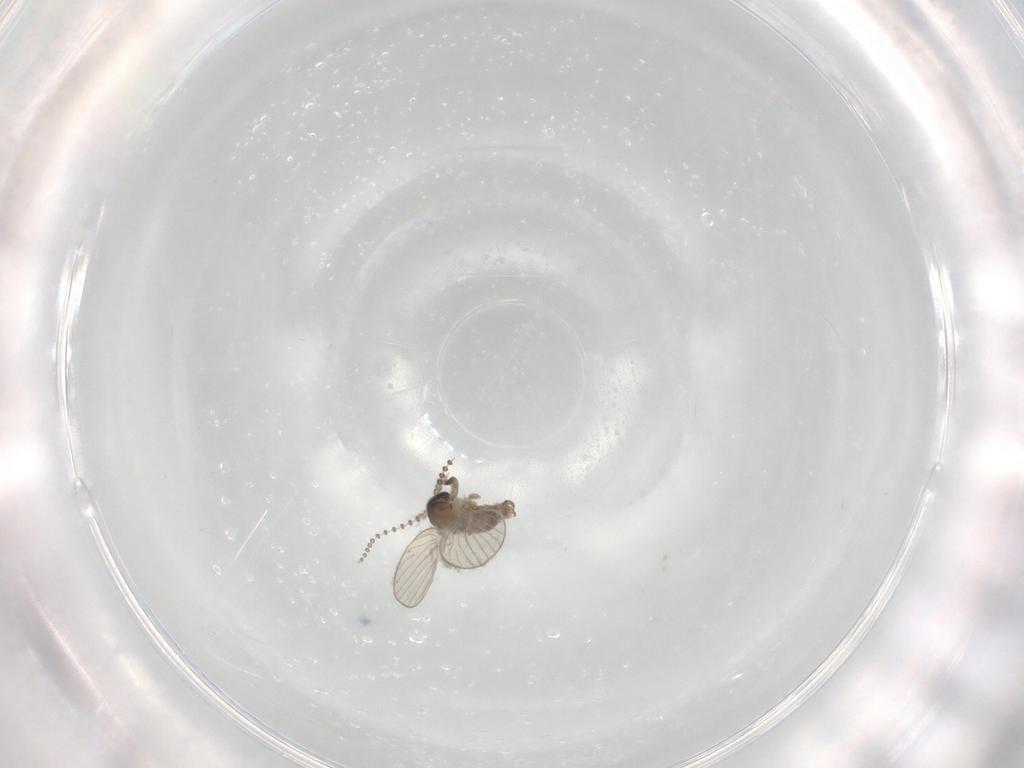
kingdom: Animalia
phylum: Arthropoda
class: Insecta
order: Diptera
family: Psychodidae
